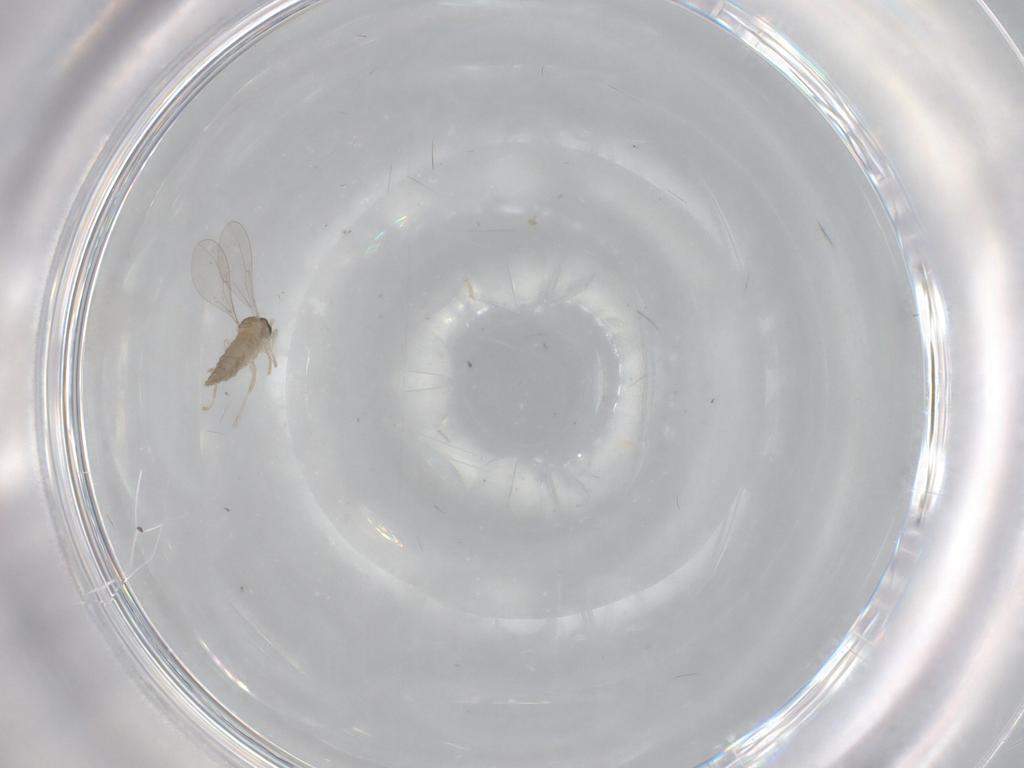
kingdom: Animalia
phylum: Arthropoda
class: Insecta
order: Diptera
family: Cecidomyiidae
